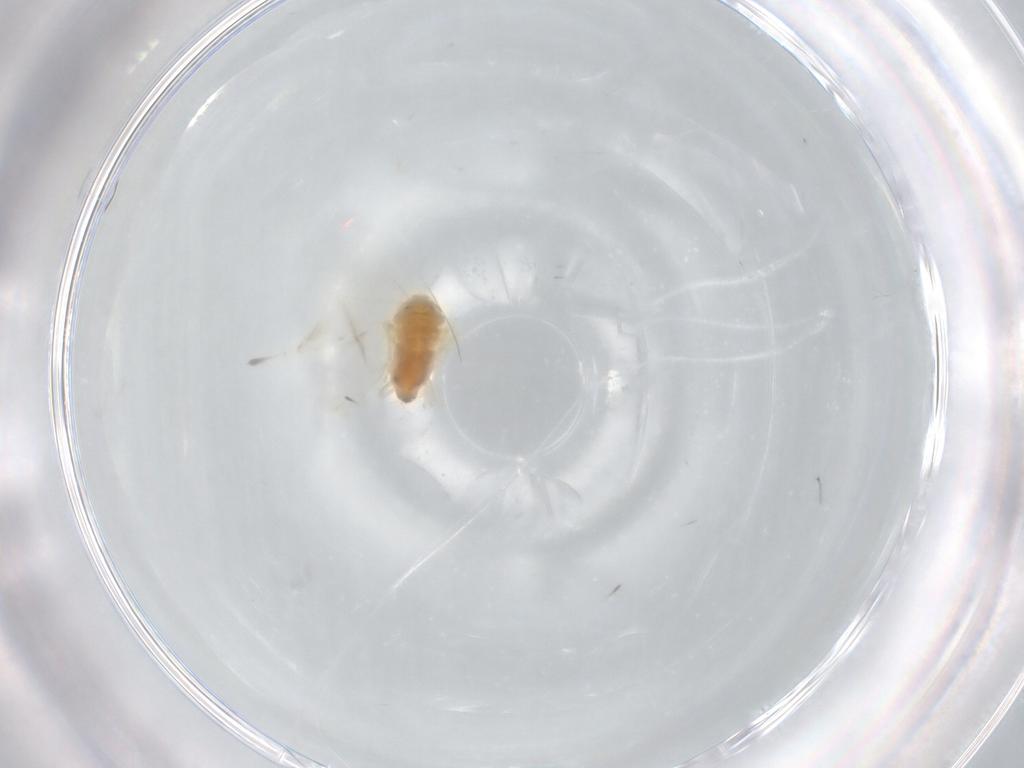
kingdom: Animalia
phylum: Arthropoda
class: Insecta
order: Hemiptera
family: Aleyrodidae
